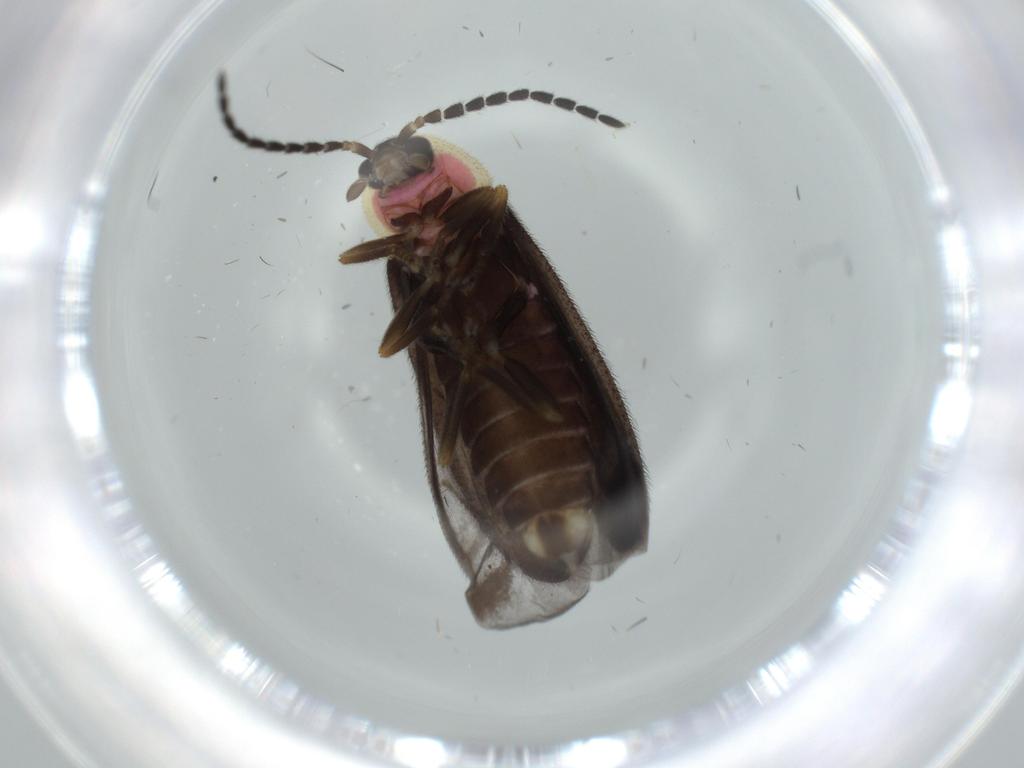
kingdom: Animalia
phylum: Arthropoda
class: Insecta
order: Coleoptera
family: Lampyridae
